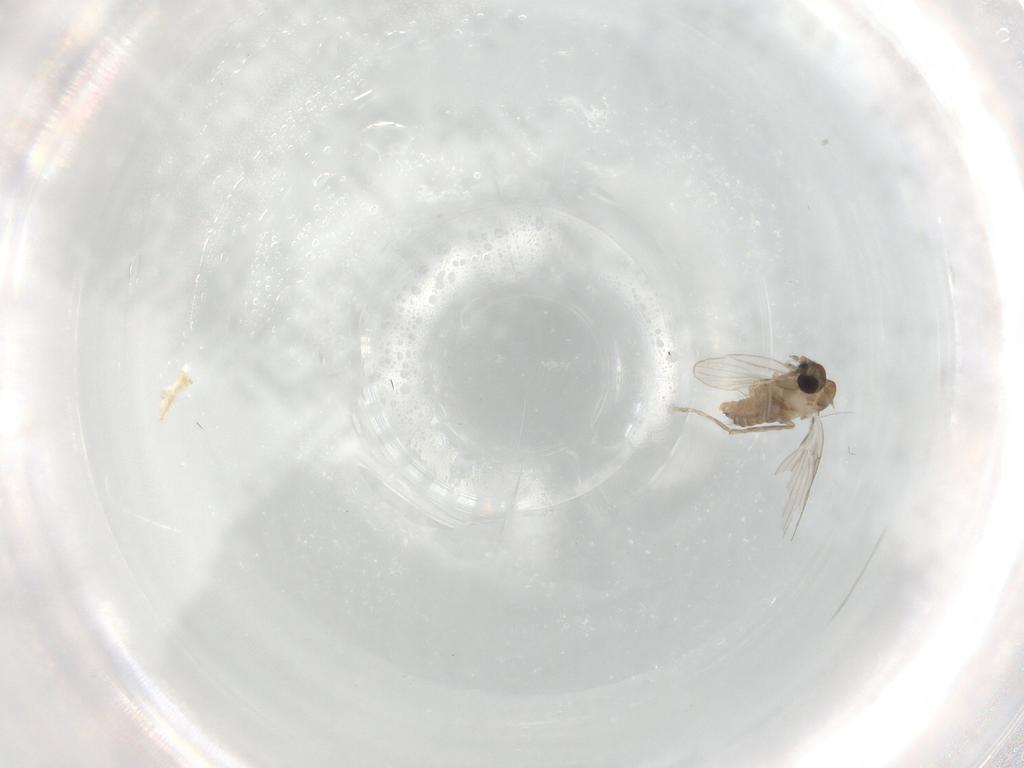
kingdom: Animalia
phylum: Arthropoda
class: Insecta
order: Diptera
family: Psychodidae
